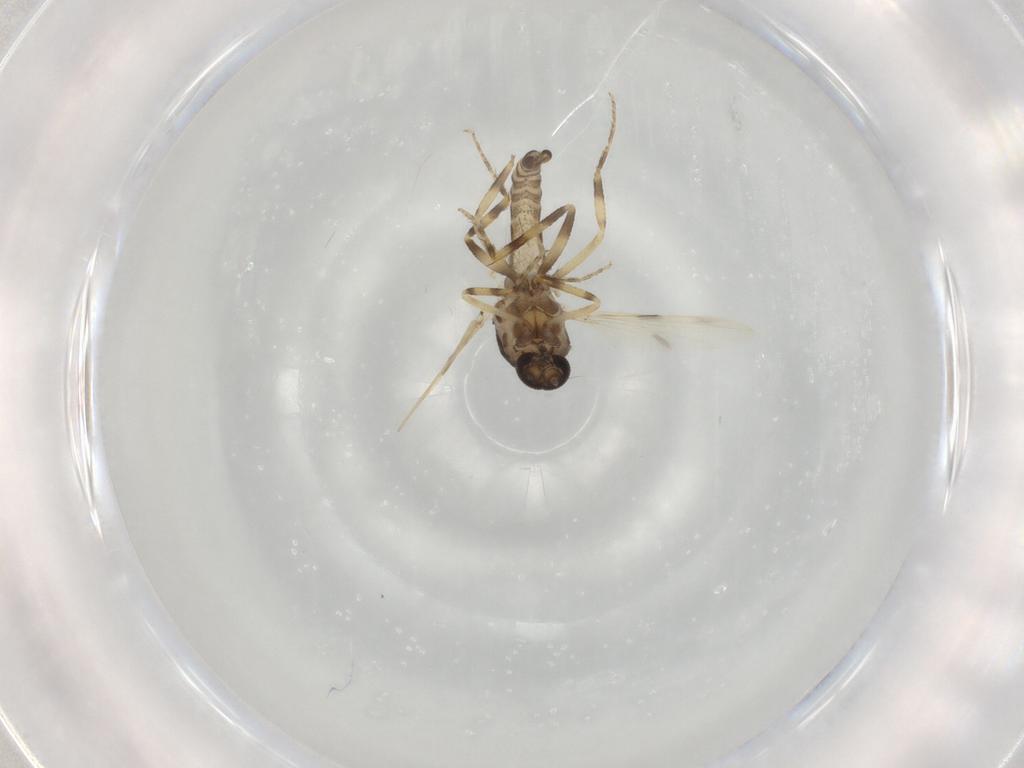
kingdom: Animalia
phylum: Arthropoda
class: Insecta
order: Diptera
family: Ceratopogonidae
